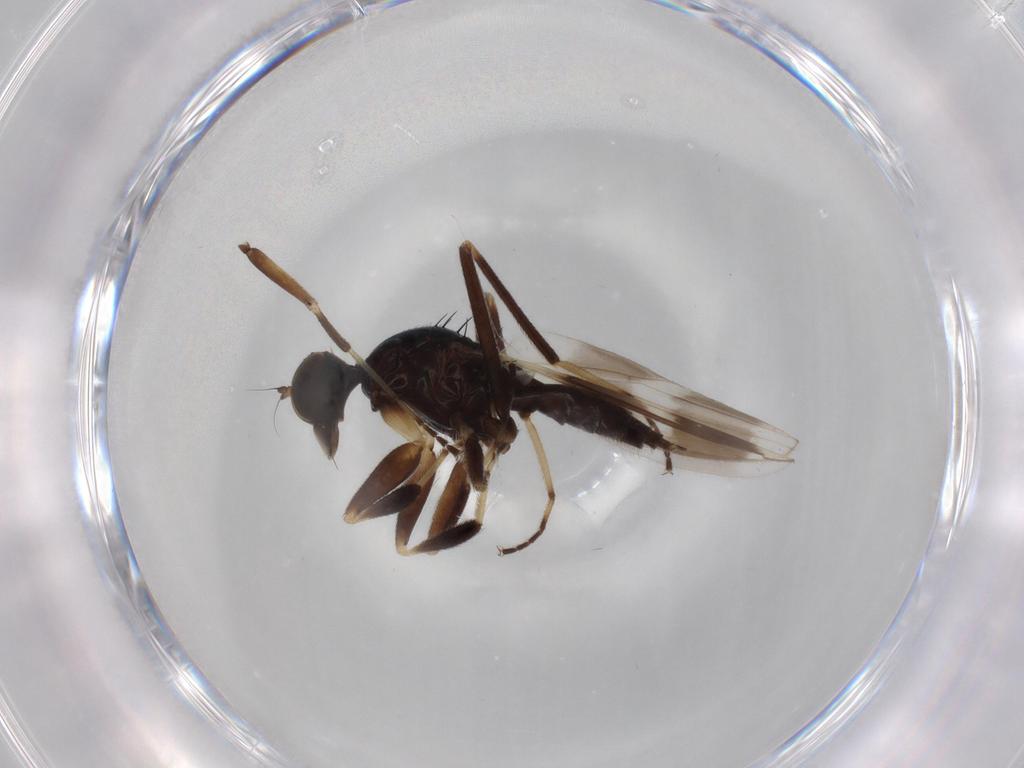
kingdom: Animalia
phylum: Arthropoda
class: Insecta
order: Diptera
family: Hybotidae
